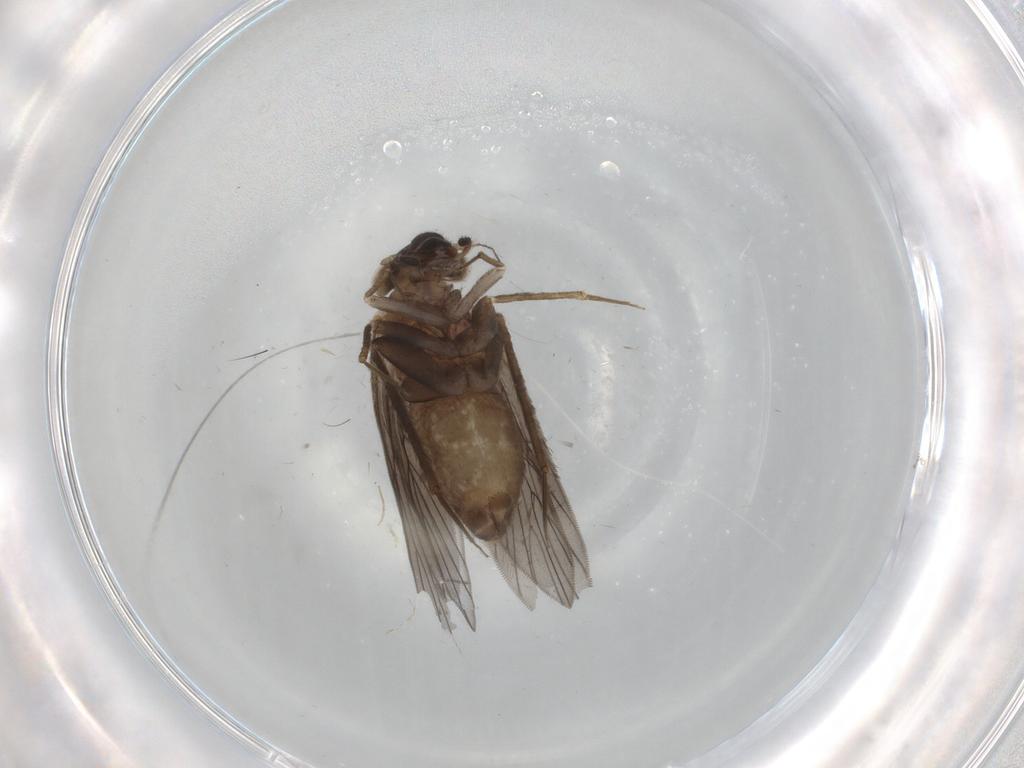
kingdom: Animalia
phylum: Arthropoda
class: Insecta
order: Psocodea
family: Lepidopsocidae
